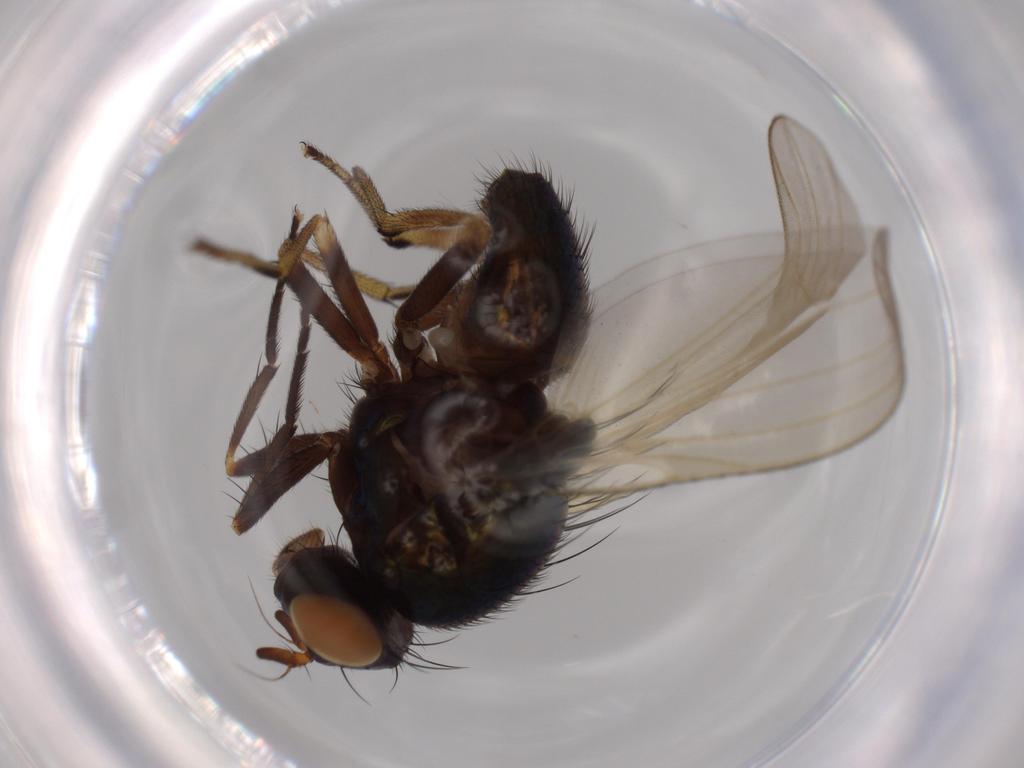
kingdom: Animalia
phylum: Arthropoda
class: Insecta
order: Diptera
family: Lauxaniidae
